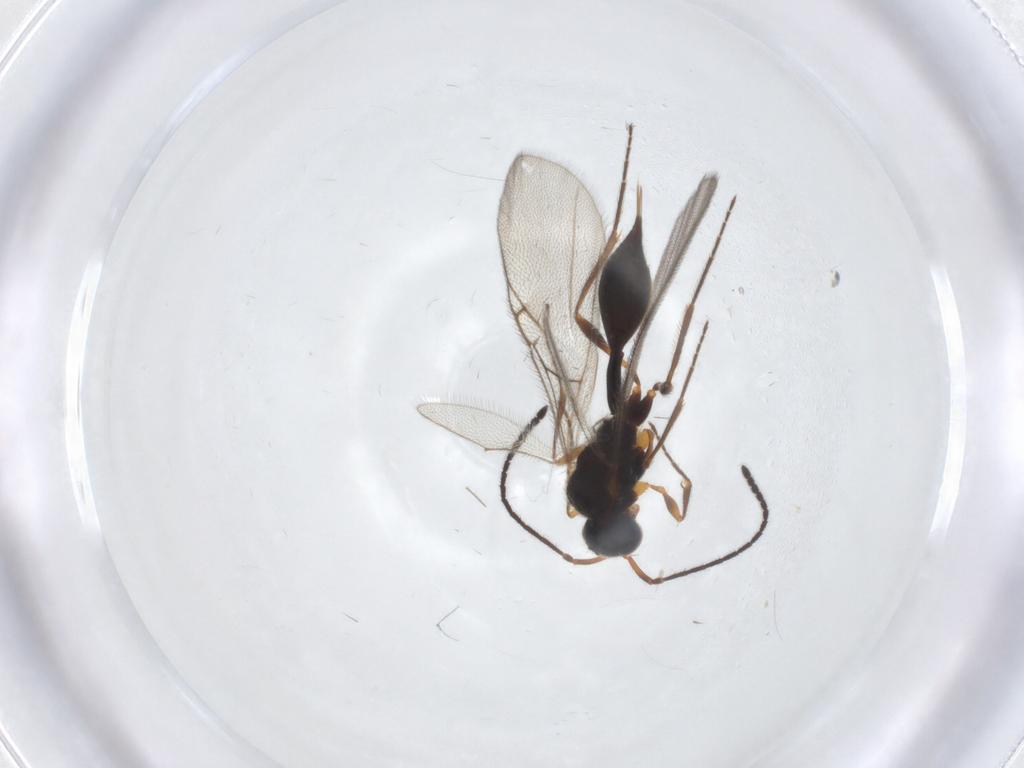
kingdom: Animalia
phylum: Arthropoda
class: Insecta
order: Hymenoptera
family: Diapriidae
